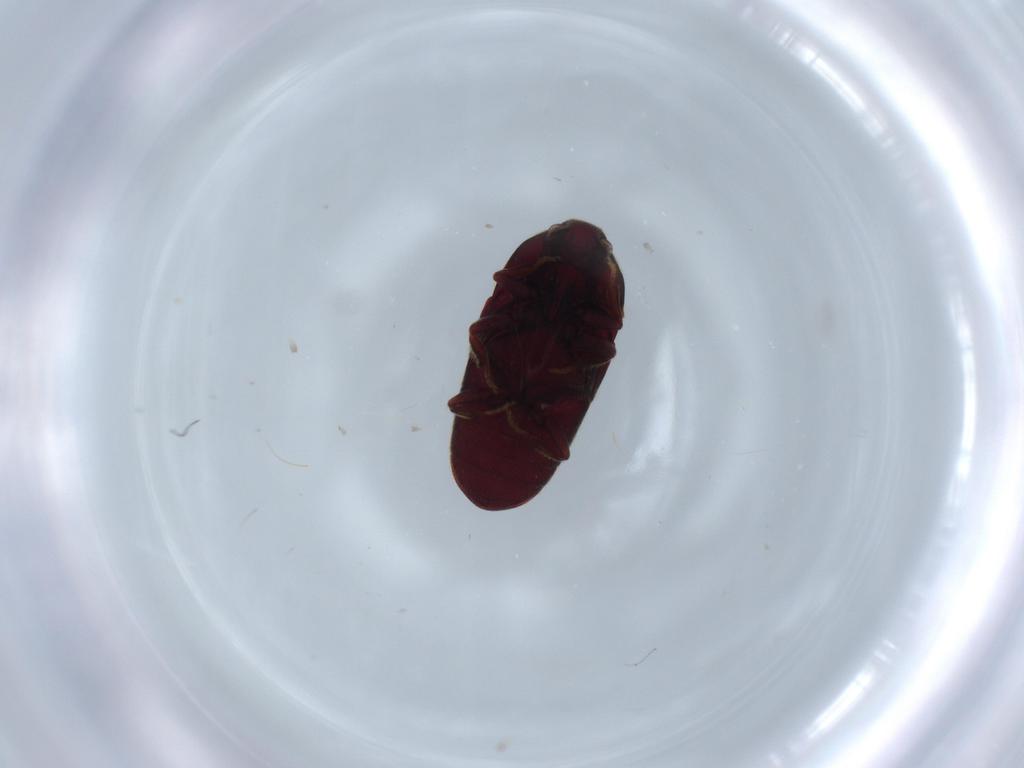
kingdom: Animalia
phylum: Arthropoda
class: Insecta
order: Coleoptera
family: Throscidae
